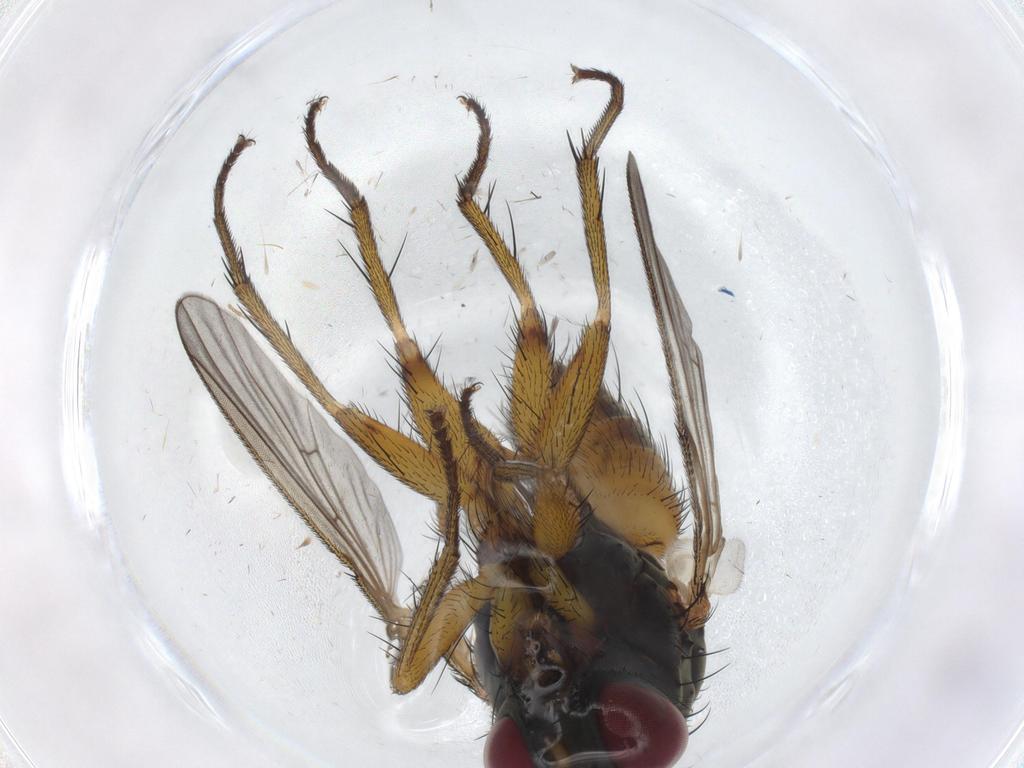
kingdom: Animalia
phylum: Arthropoda
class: Insecta
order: Diptera
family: Muscidae
